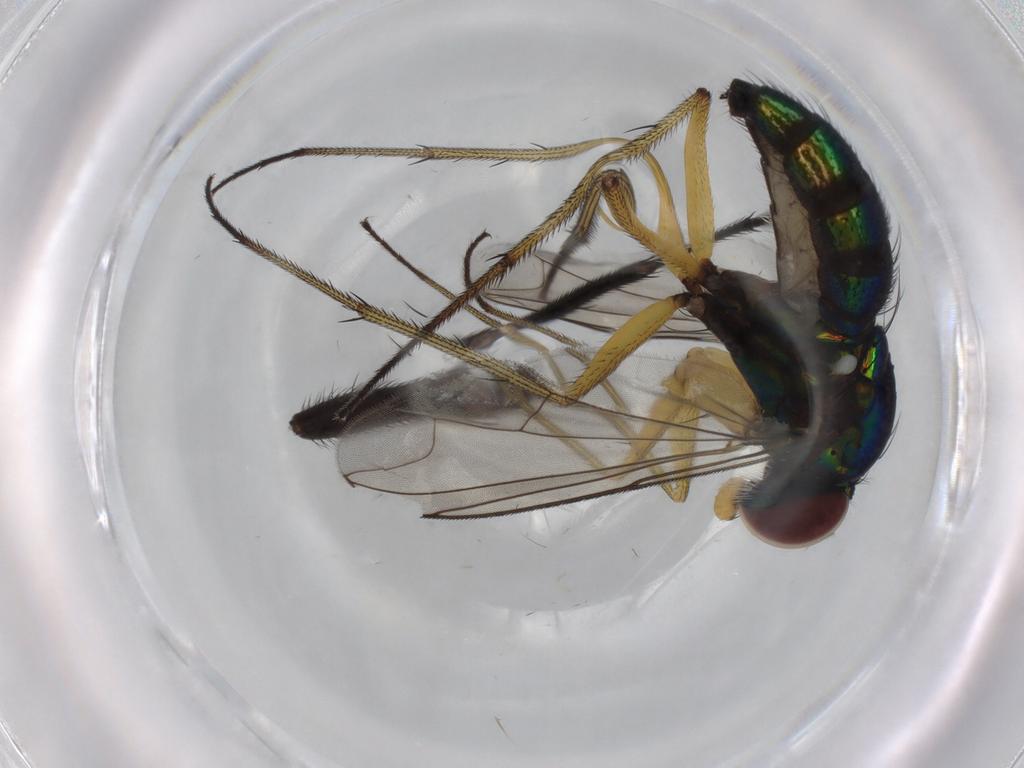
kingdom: Animalia
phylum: Arthropoda
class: Insecta
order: Diptera
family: Dolichopodidae
